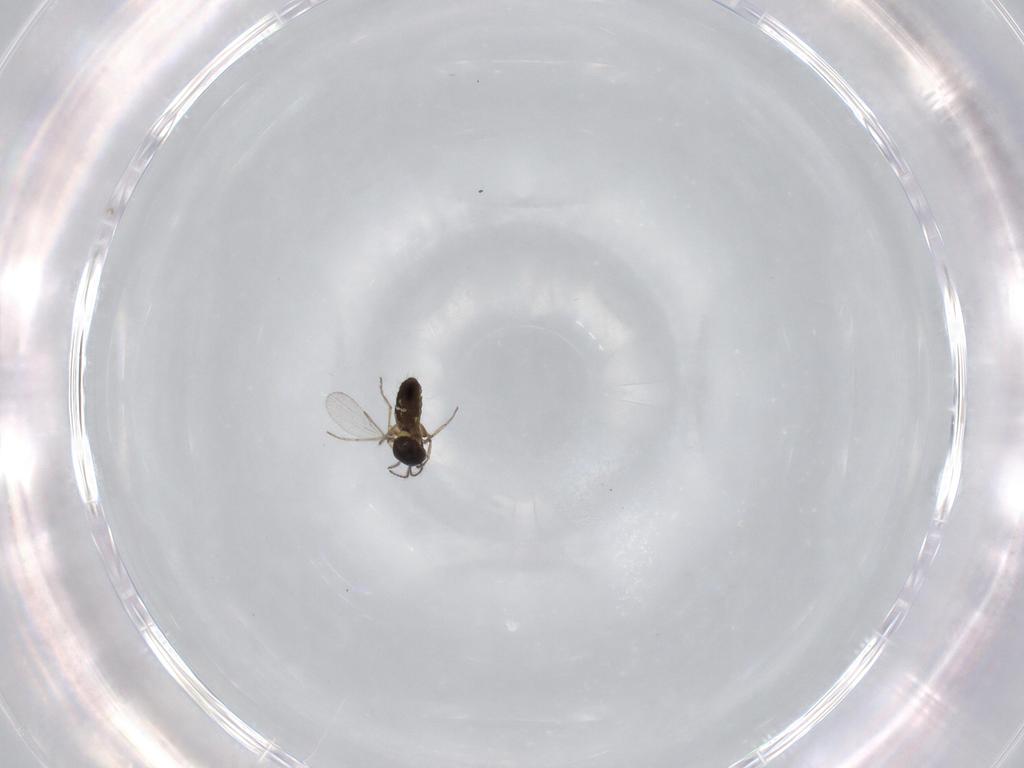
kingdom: Animalia
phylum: Arthropoda
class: Insecta
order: Diptera
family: Ceratopogonidae
